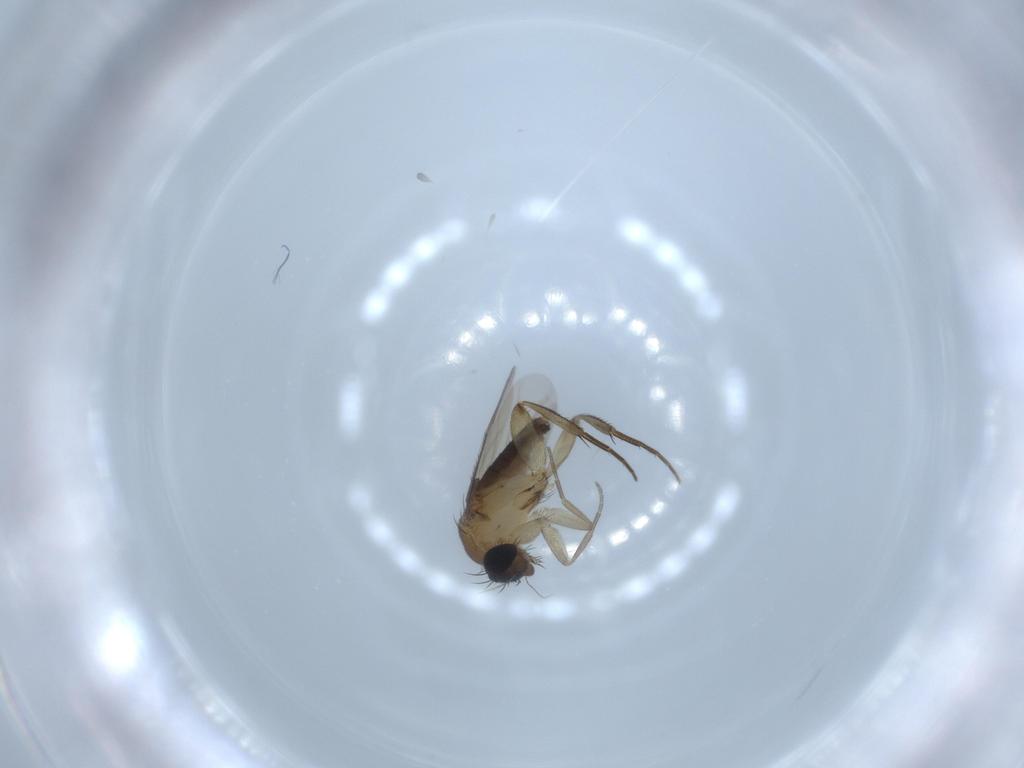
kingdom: Animalia
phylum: Arthropoda
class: Insecta
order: Diptera
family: Phoridae
